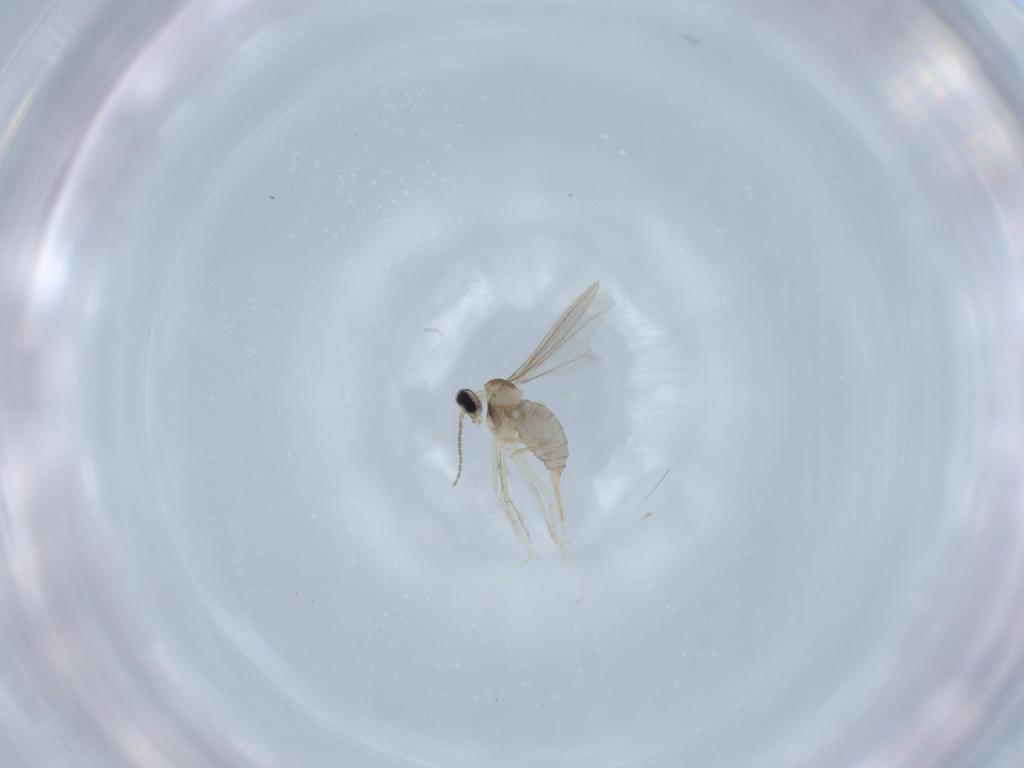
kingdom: Animalia
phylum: Arthropoda
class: Insecta
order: Diptera
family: Cecidomyiidae
